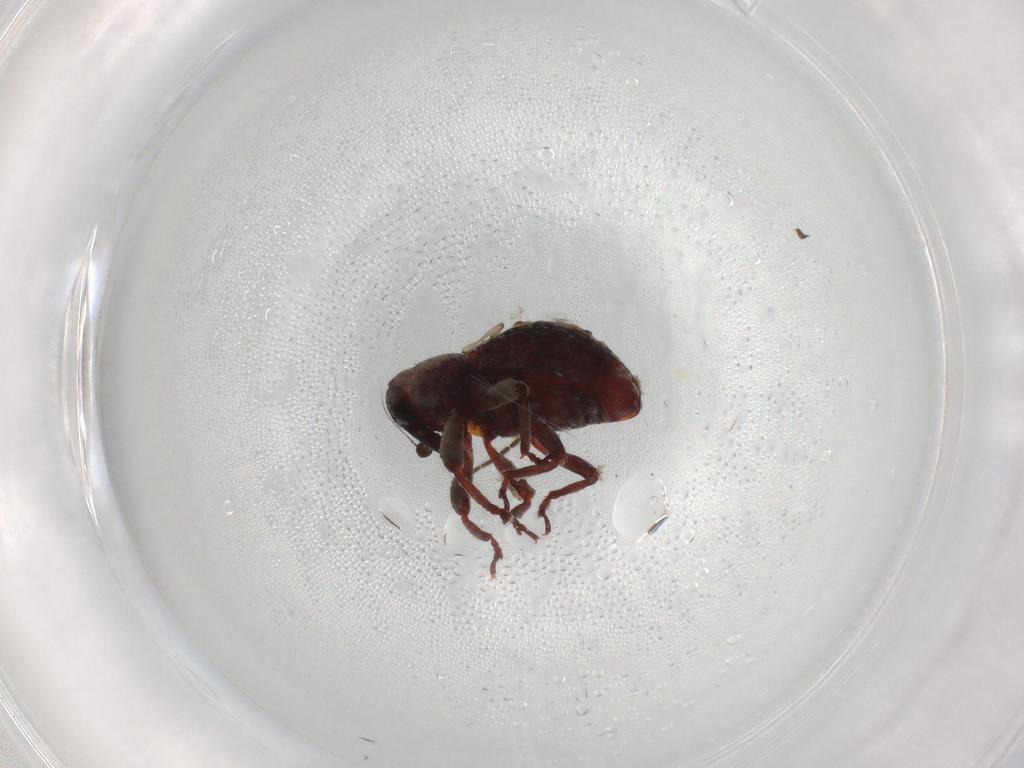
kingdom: Animalia
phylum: Arthropoda
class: Insecta
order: Coleoptera
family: Curculionidae
